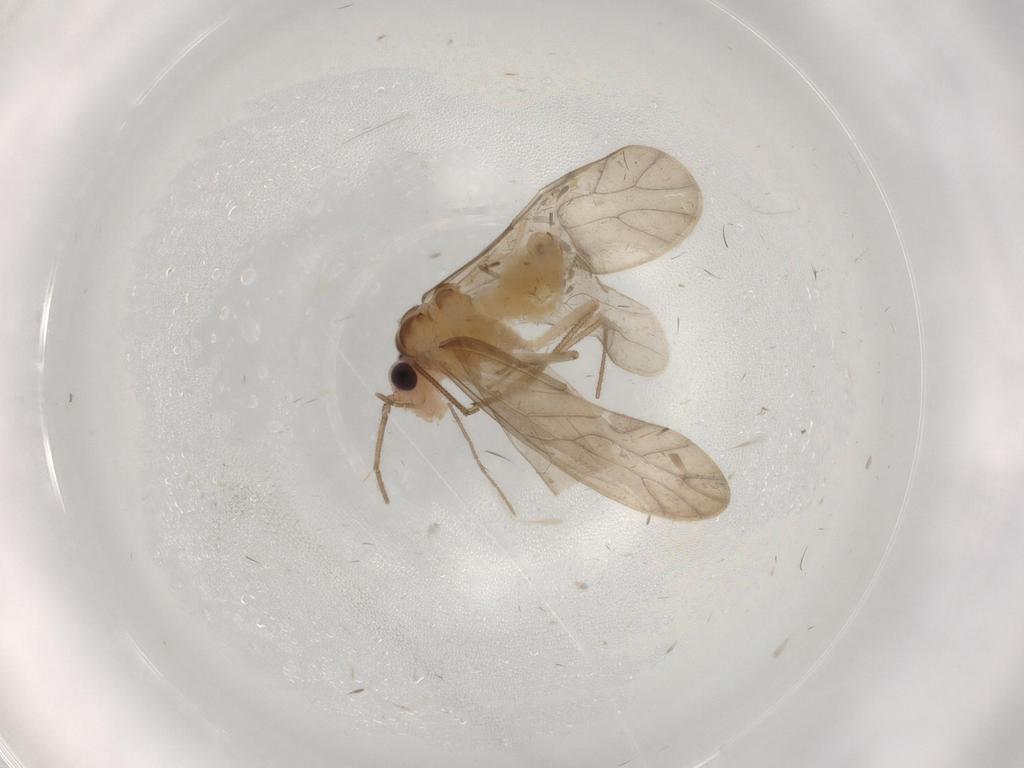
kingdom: Animalia
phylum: Arthropoda
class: Insecta
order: Psocodea
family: Caeciliusidae
